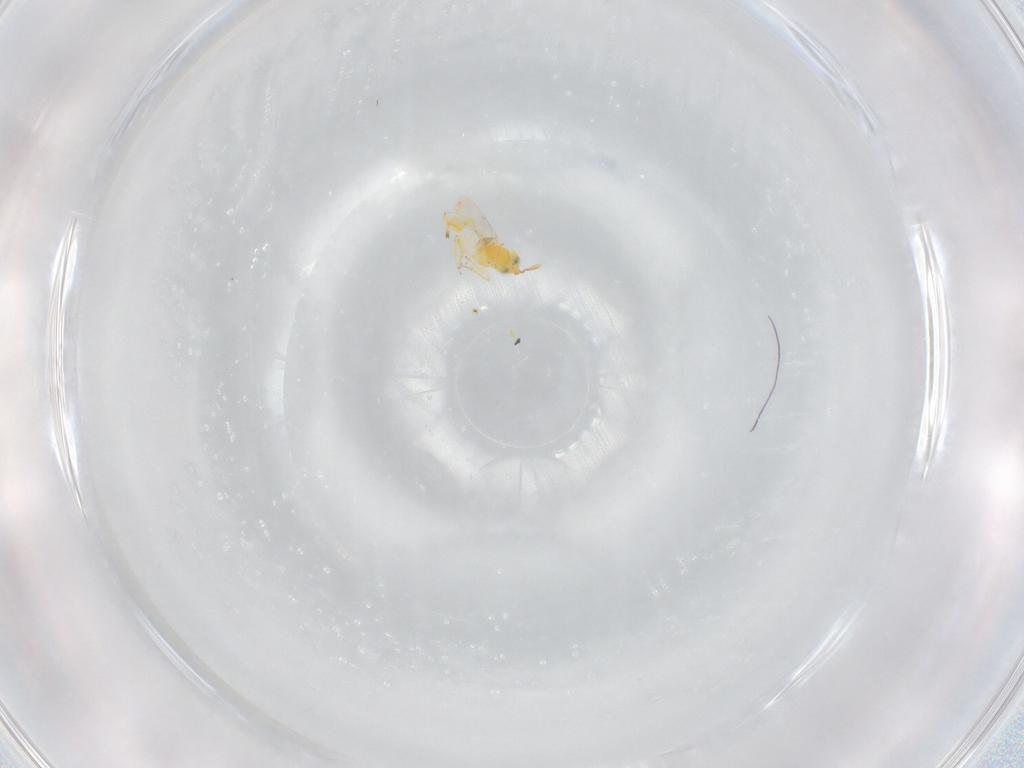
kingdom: Animalia
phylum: Arthropoda
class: Insecta
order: Hymenoptera
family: Encyrtidae
